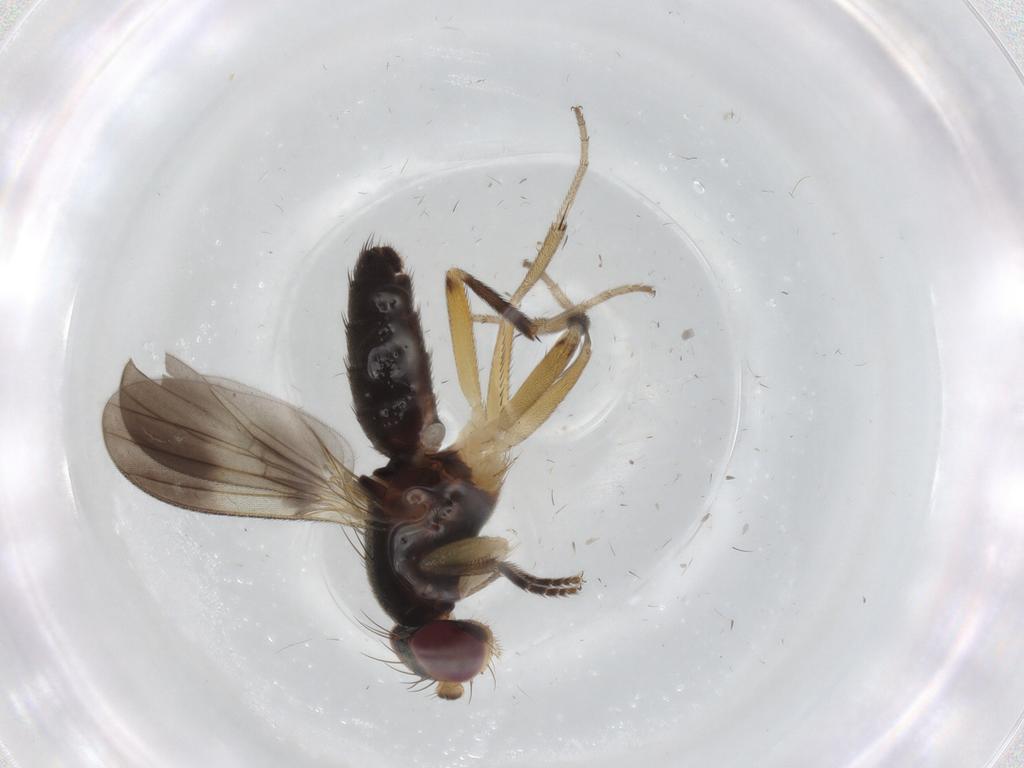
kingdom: Animalia
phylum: Arthropoda
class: Insecta
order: Diptera
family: Clusiidae
